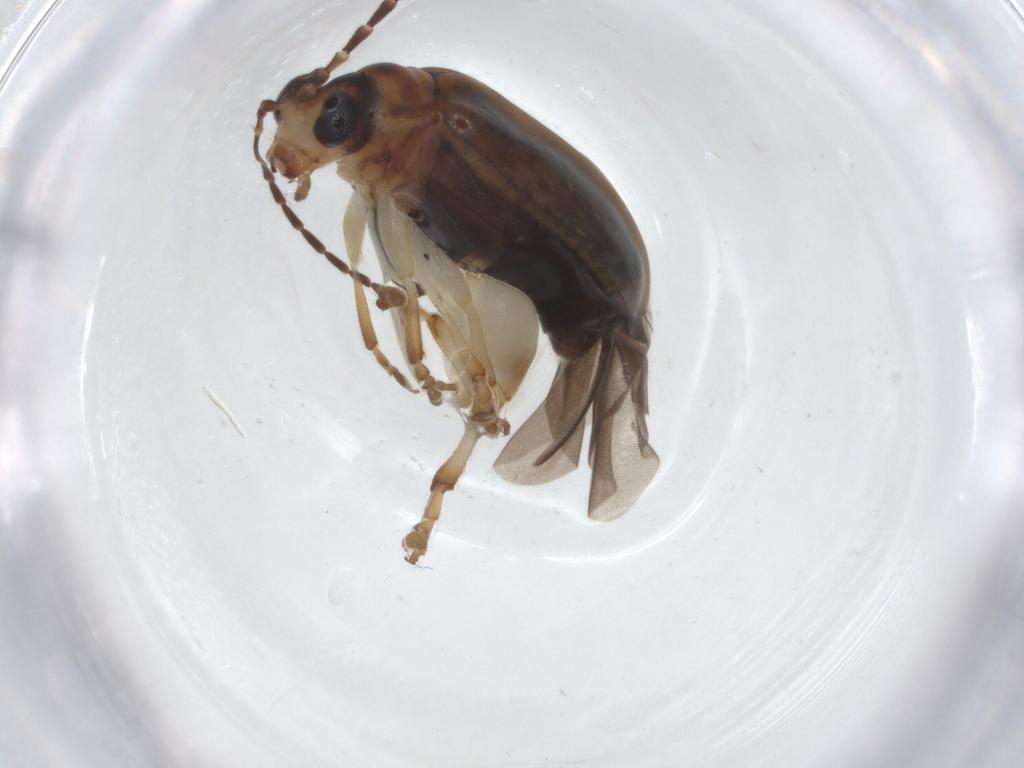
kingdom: Animalia
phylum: Arthropoda
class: Insecta
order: Coleoptera
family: Chrysomelidae
